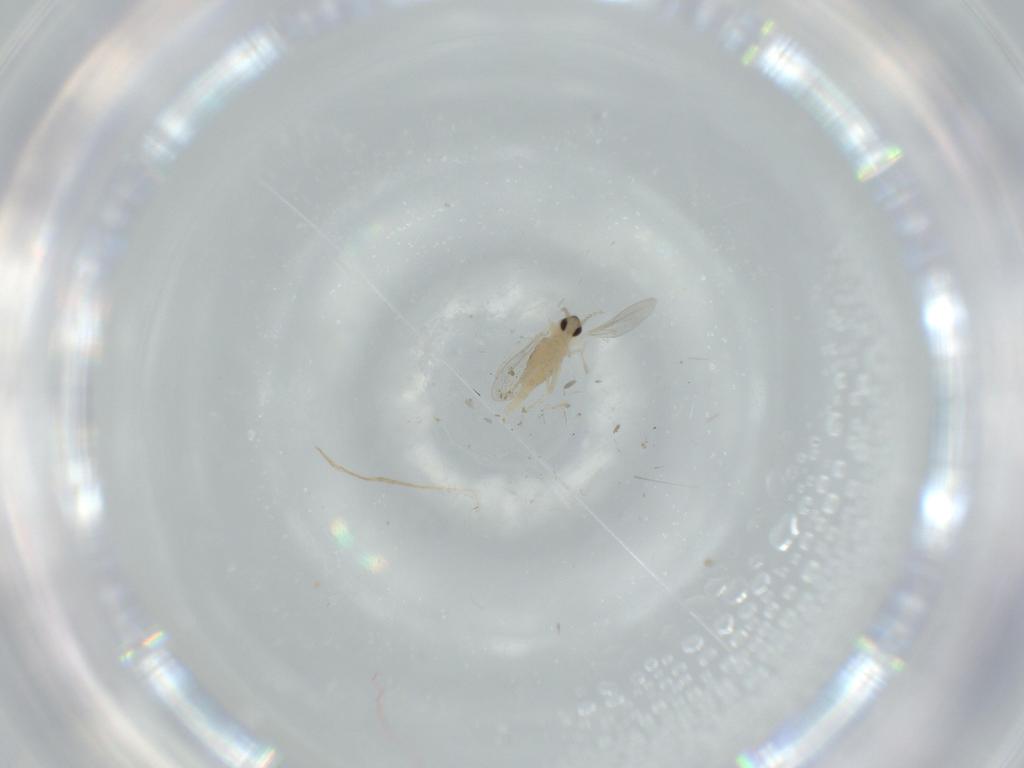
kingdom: Animalia
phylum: Arthropoda
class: Insecta
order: Diptera
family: Cecidomyiidae
